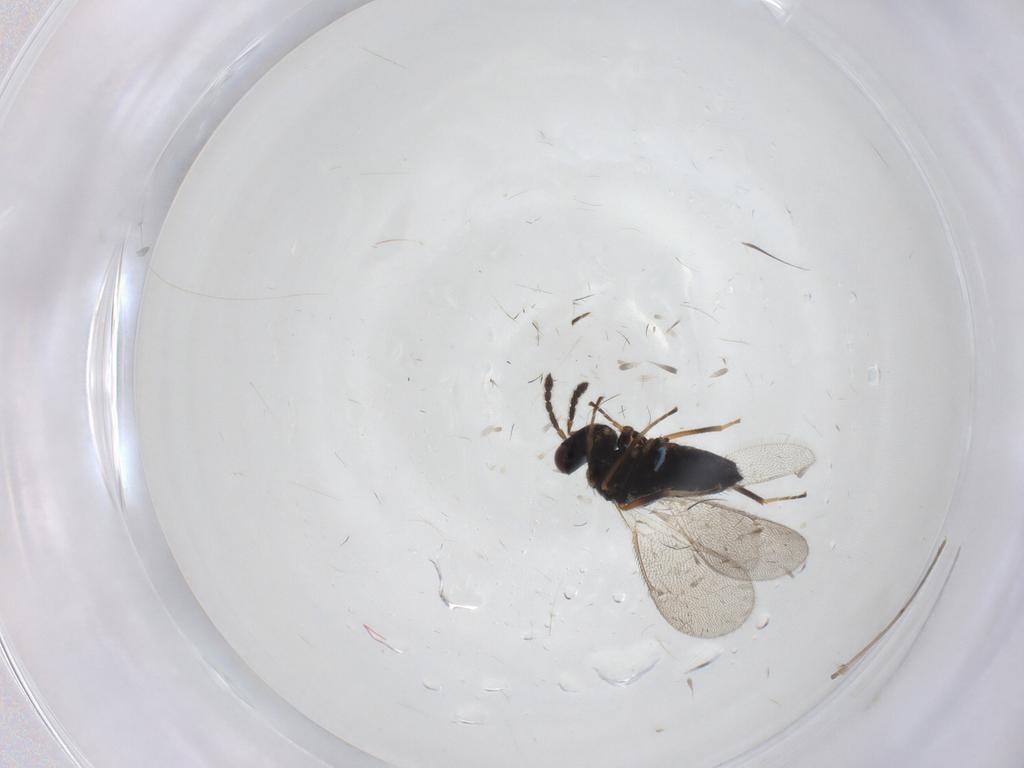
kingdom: Animalia
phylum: Arthropoda
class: Insecta
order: Hymenoptera
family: Eulophidae
